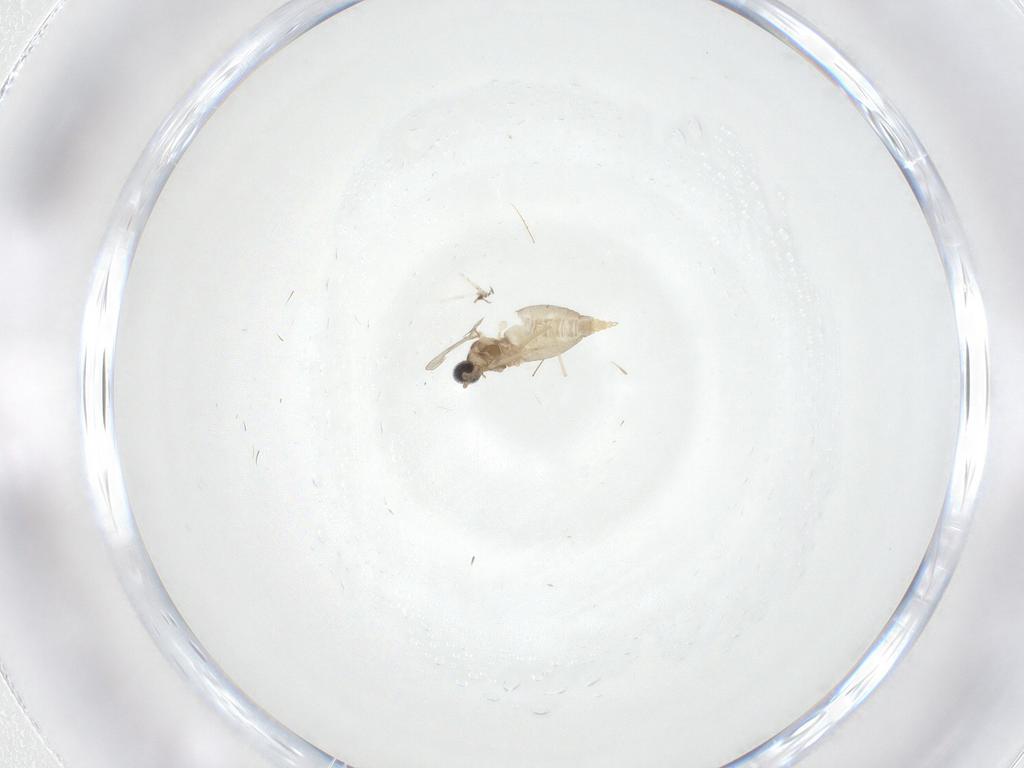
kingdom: Animalia
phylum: Arthropoda
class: Insecta
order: Diptera
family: Cecidomyiidae
